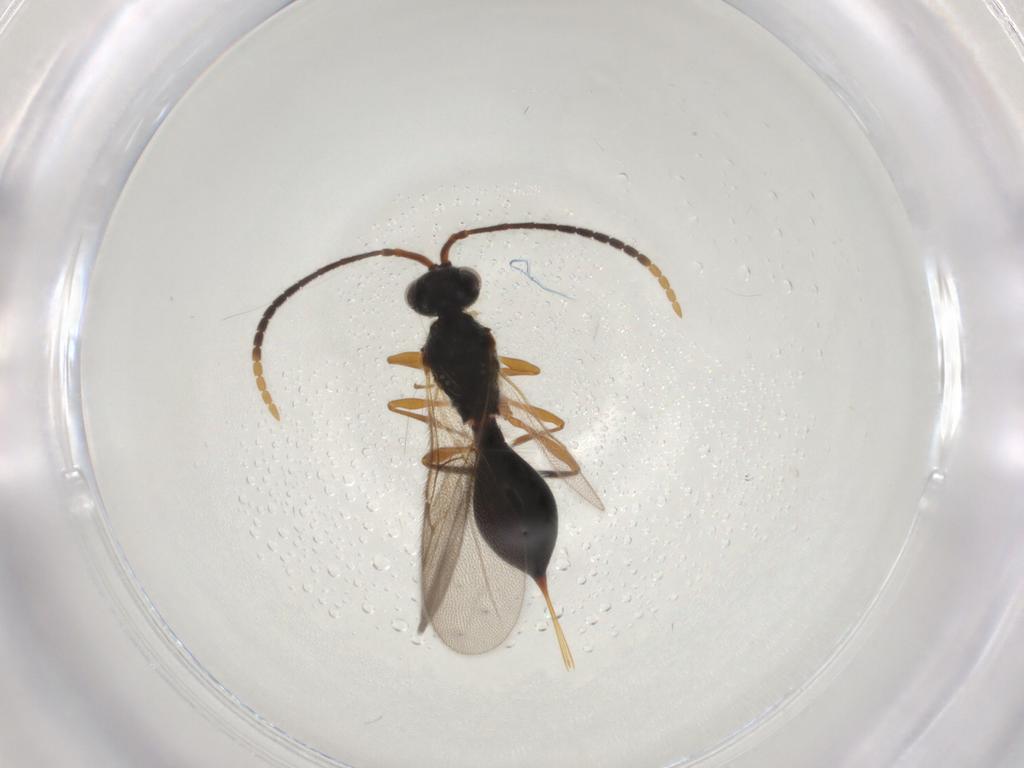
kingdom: Animalia
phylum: Arthropoda
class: Insecta
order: Hymenoptera
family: Diapriidae
